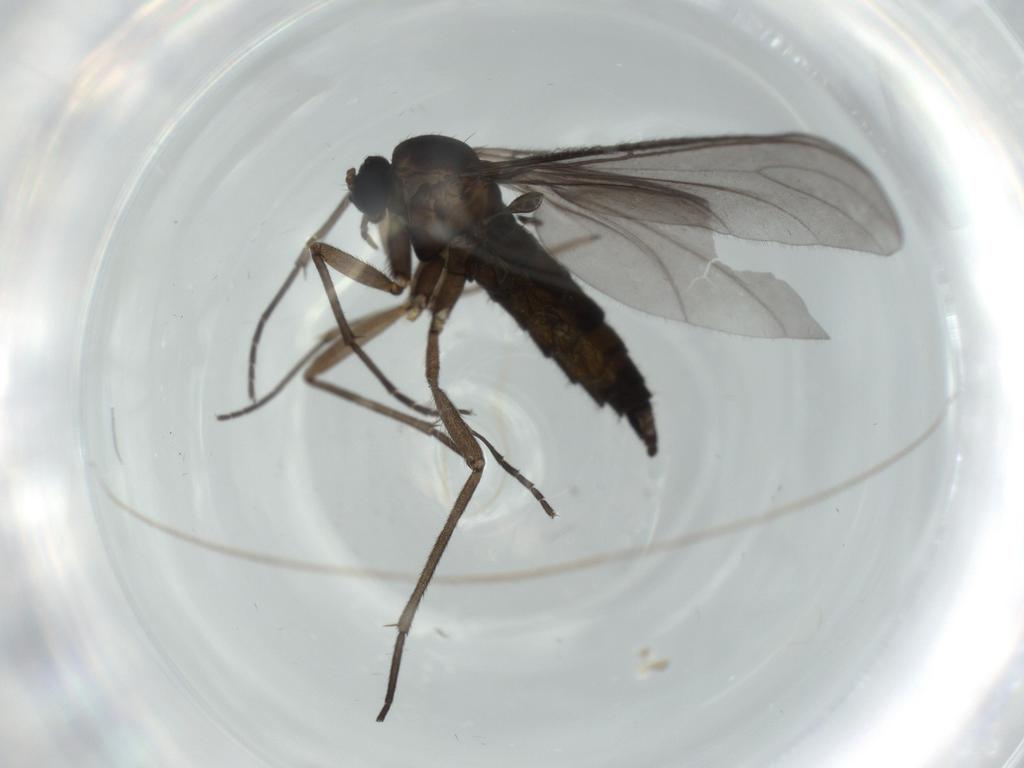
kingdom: Animalia
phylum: Arthropoda
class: Insecta
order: Diptera
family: Sciaridae
